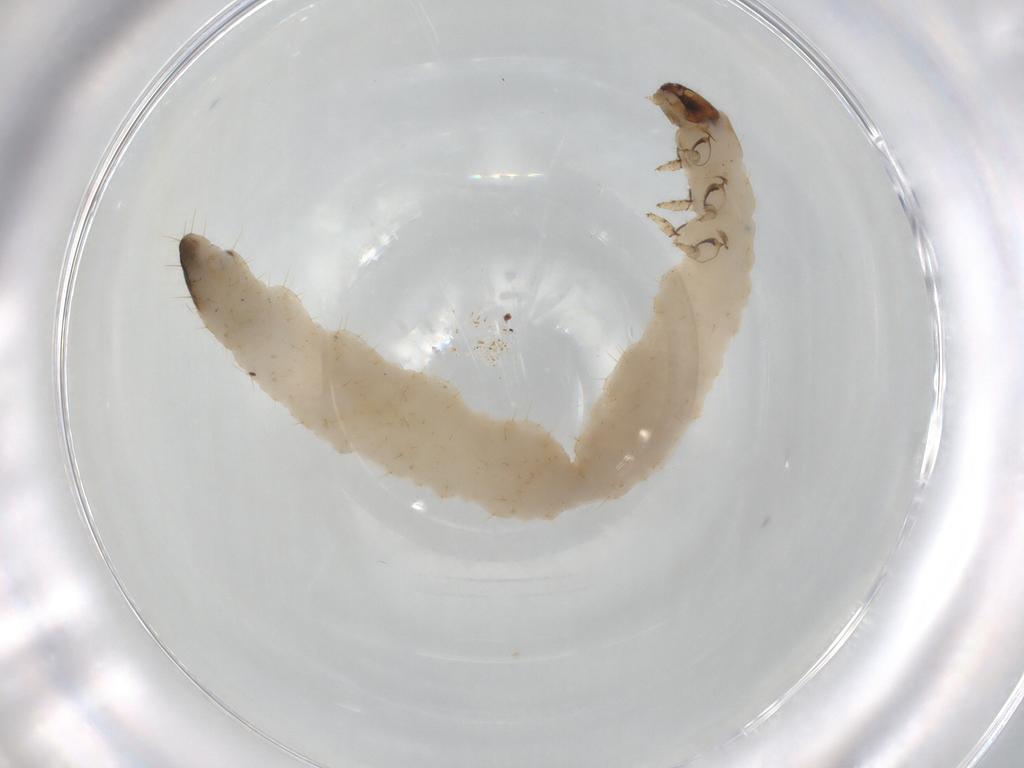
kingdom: Animalia
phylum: Arthropoda
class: Insecta
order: Coleoptera
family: Chrysomelidae
